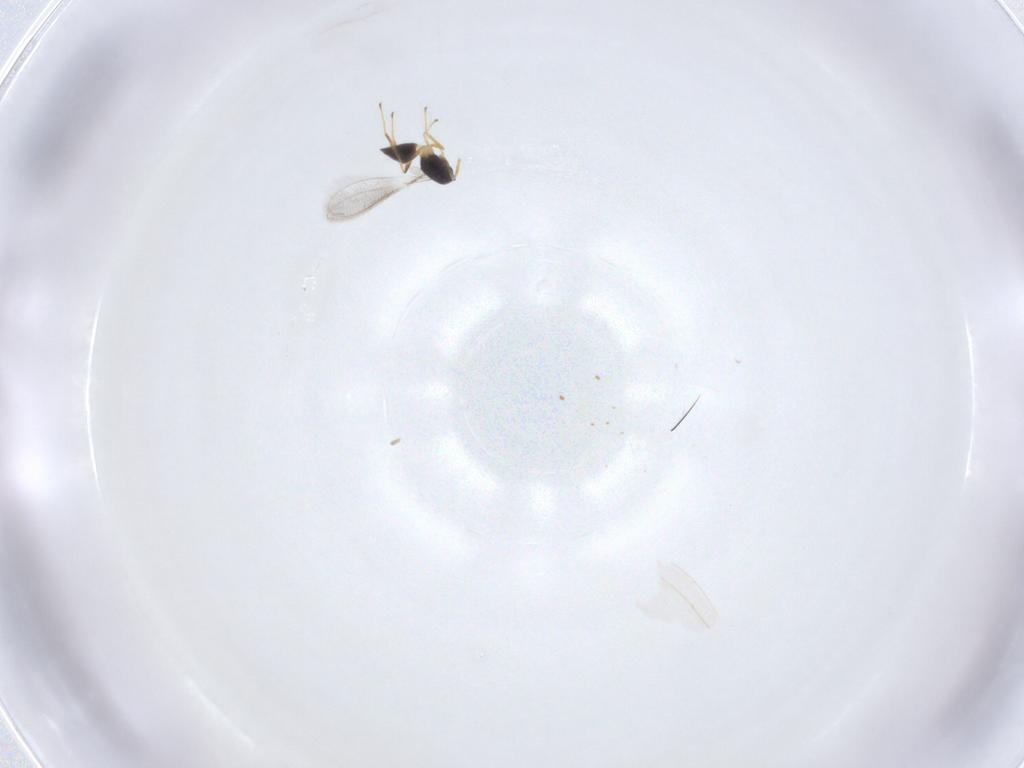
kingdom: Animalia
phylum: Arthropoda
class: Insecta
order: Hymenoptera
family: Mymaridae
